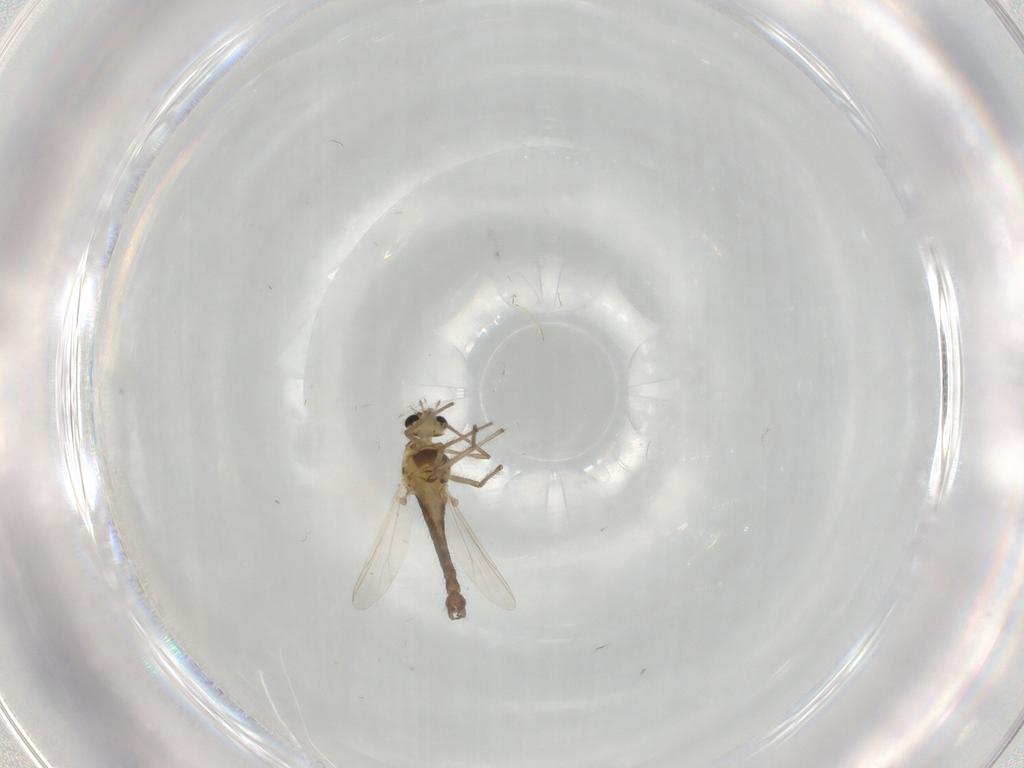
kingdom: Animalia
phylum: Arthropoda
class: Insecta
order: Diptera
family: Chironomidae
